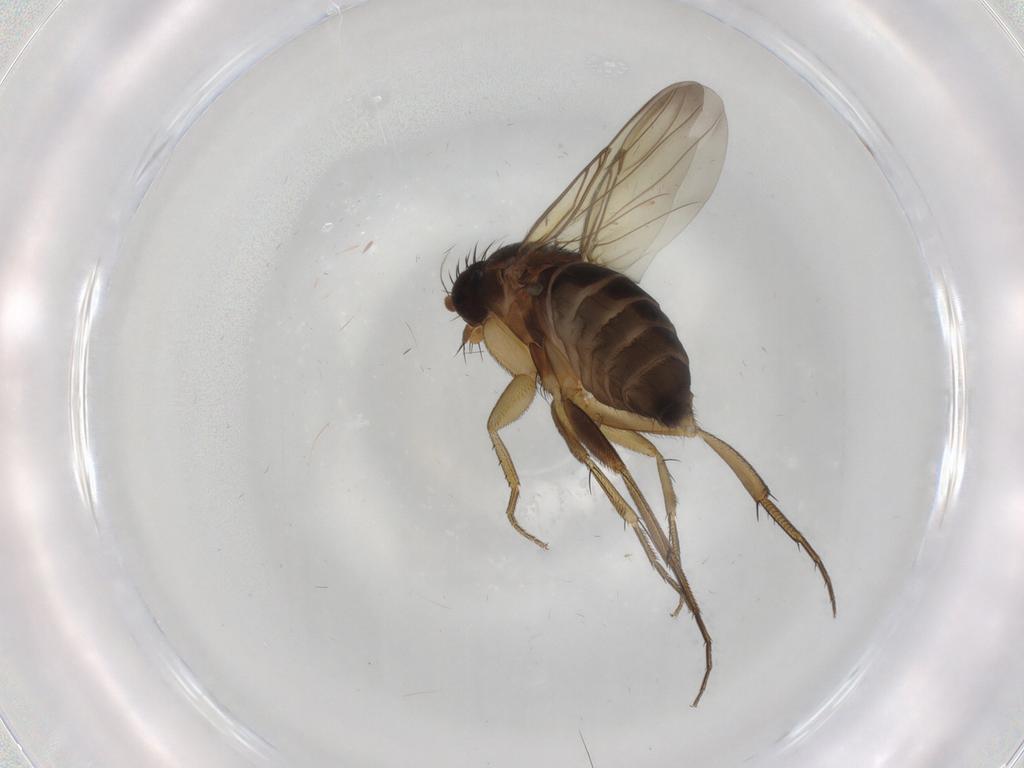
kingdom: Animalia
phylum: Arthropoda
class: Insecta
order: Diptera
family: Phoridae
